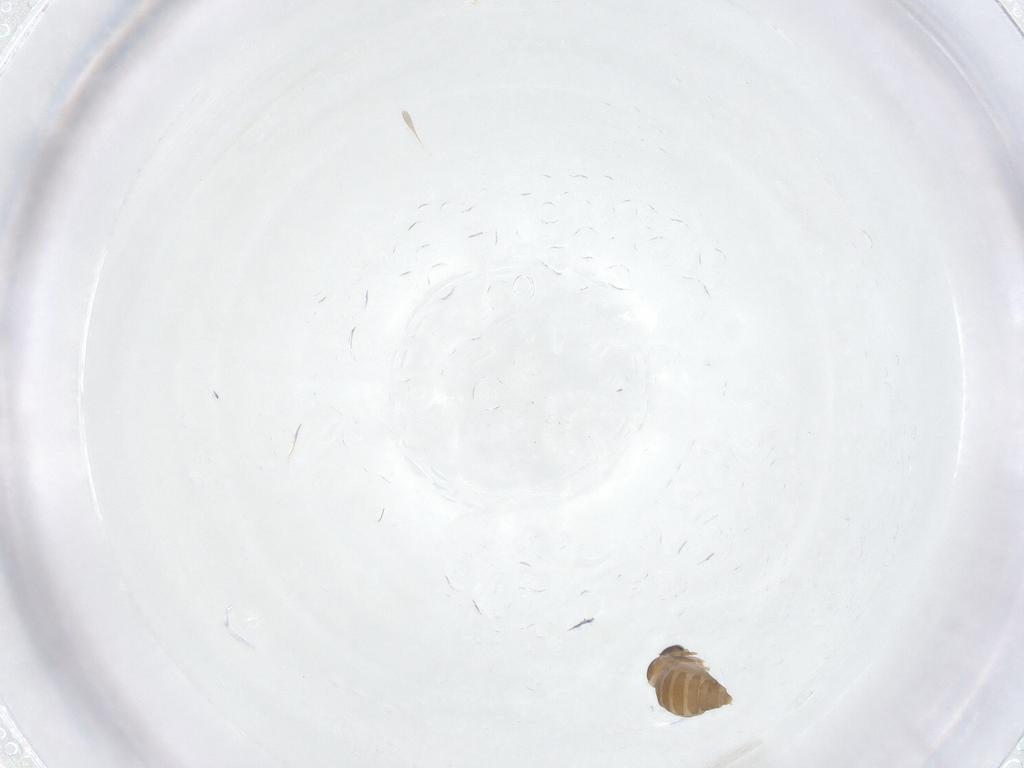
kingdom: Animalia
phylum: Arthropoda
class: Insecta
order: Diptera
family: Cecidomyiidae
